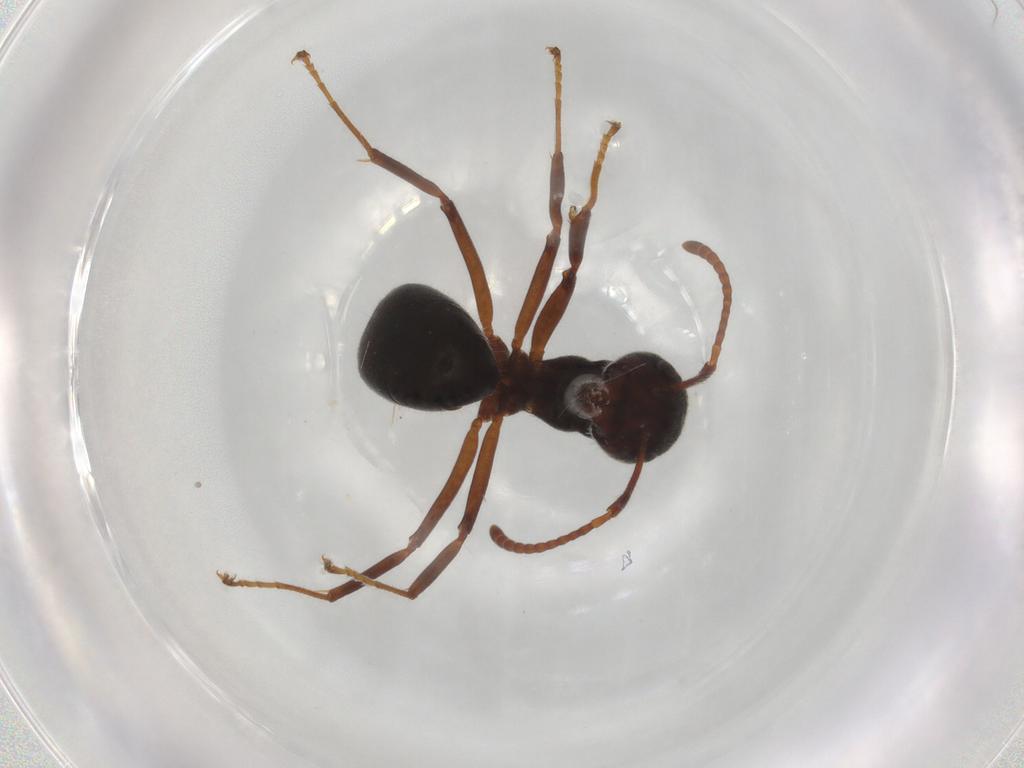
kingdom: Animalia
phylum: Arthropoda
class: Insecta
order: Hymenoptera
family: Formicidae
